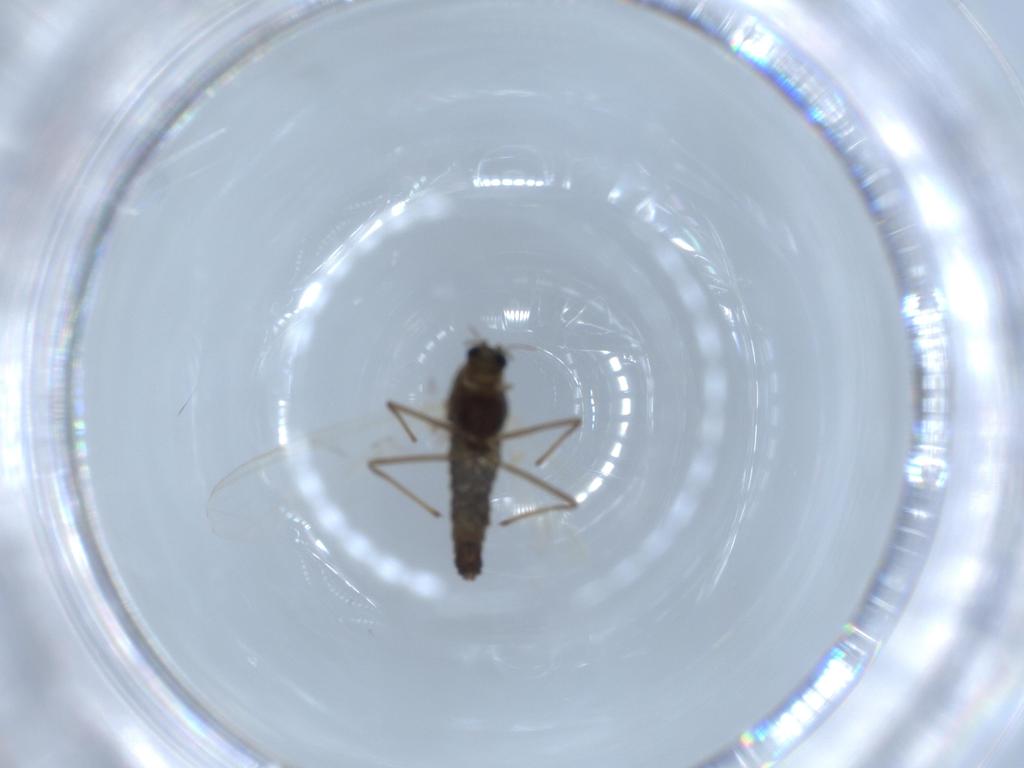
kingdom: Animalia
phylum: Arthropoda
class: Insecta
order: Diptera
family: Chironomidae
